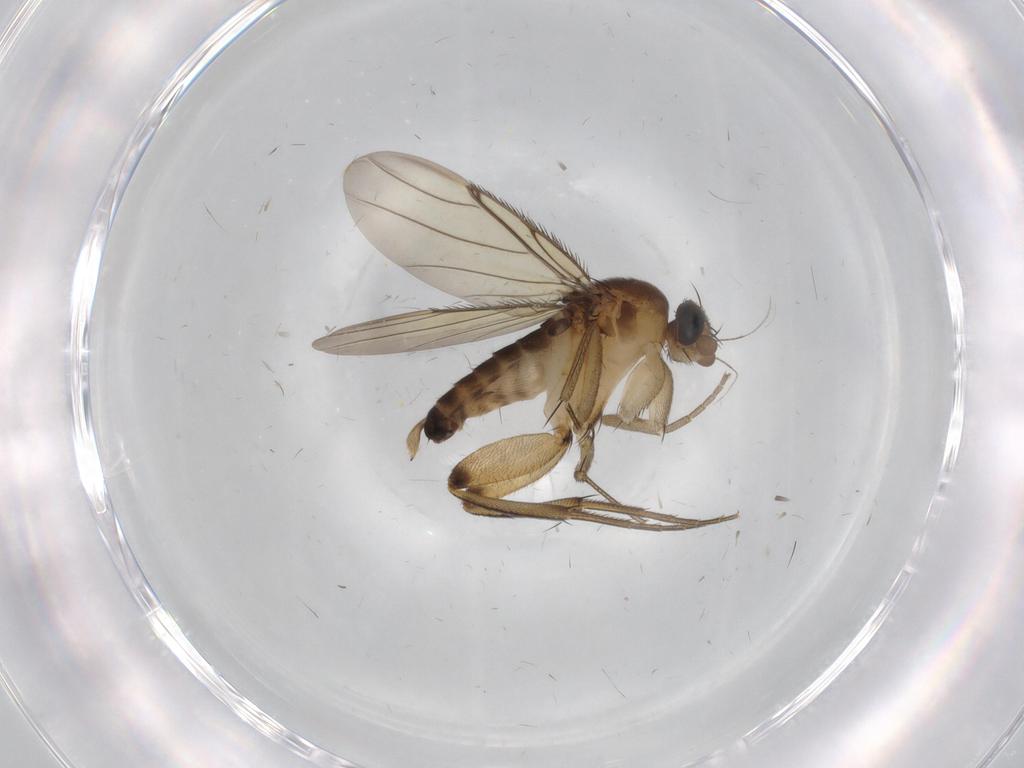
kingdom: Animalia
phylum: Arthropoda
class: Insecta
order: Diptera
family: Phoridae
